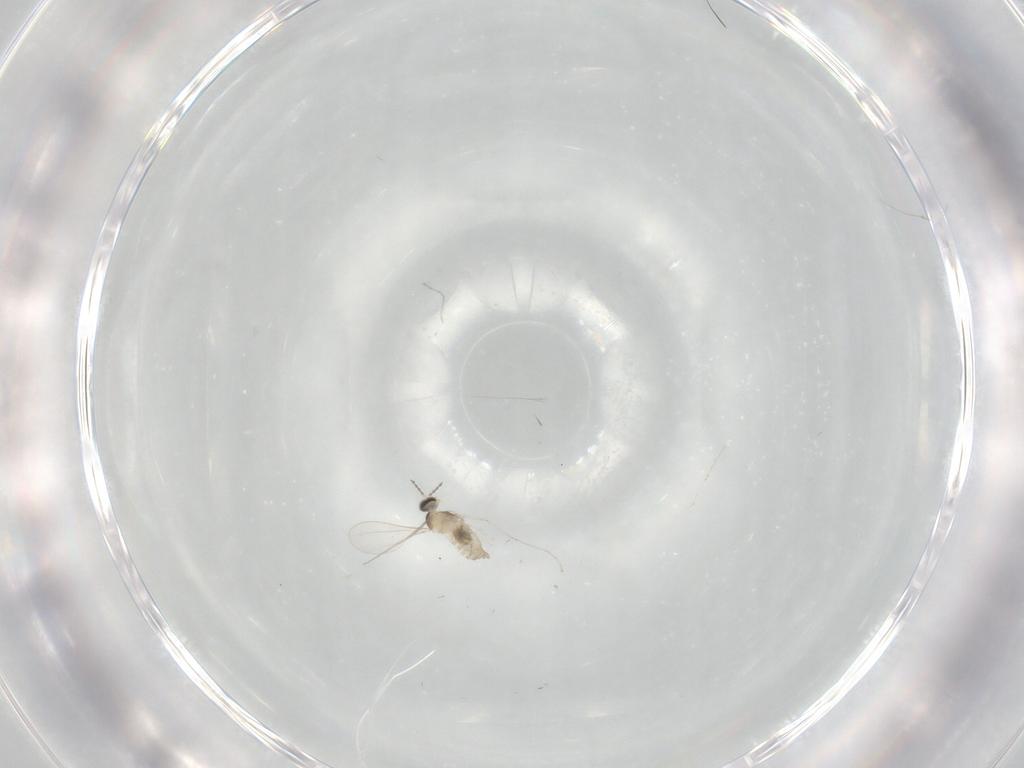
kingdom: Animalia
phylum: Arthropoda
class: Insecta
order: Diptera
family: Cecidomyiidae
